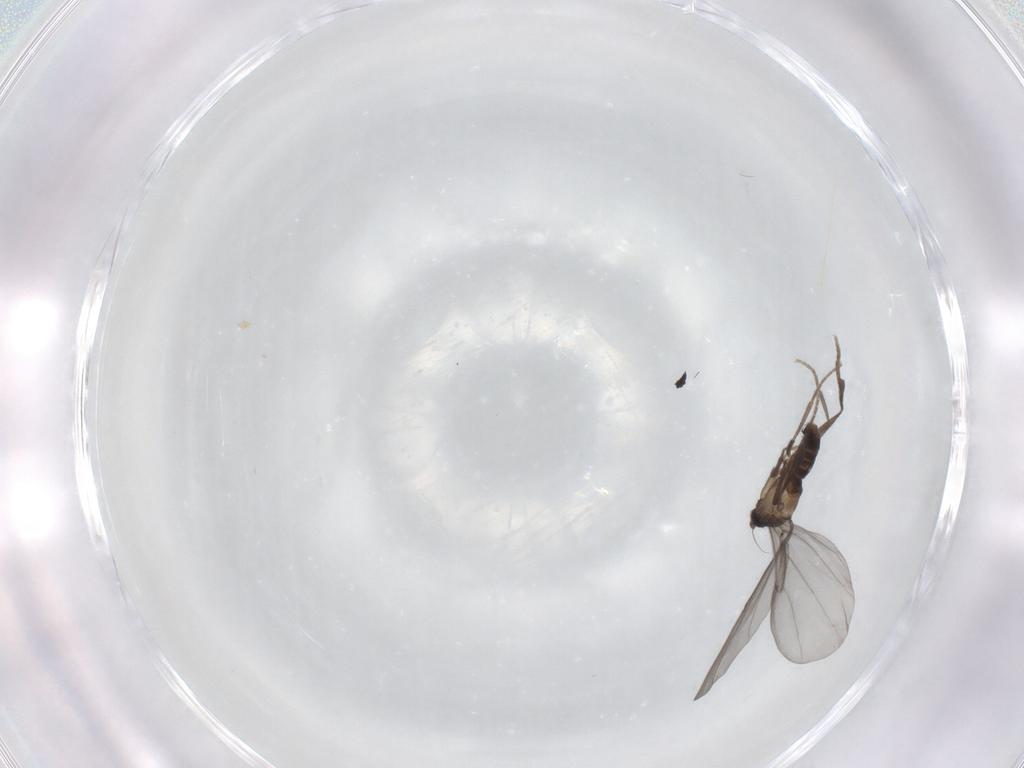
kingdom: Animalia
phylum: Arthropoda
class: Insecta
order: Diptera
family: Phoridae
